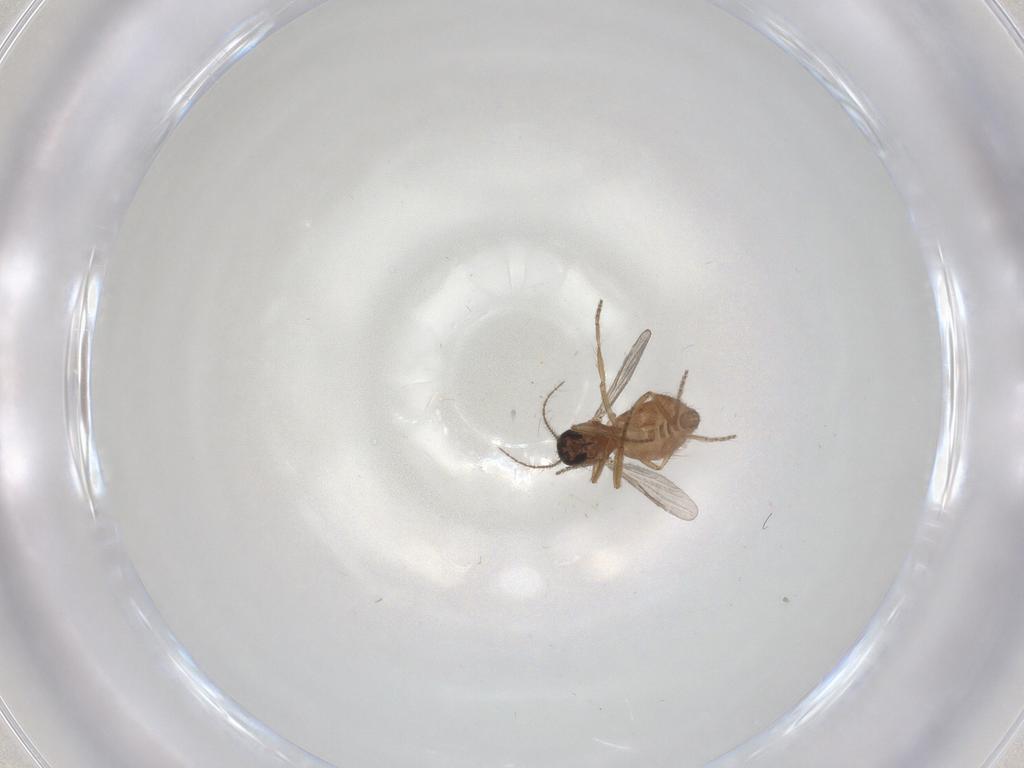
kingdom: Animalia
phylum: Arthropoda
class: Insecta
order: Diptera
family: Ceratopogonidae
